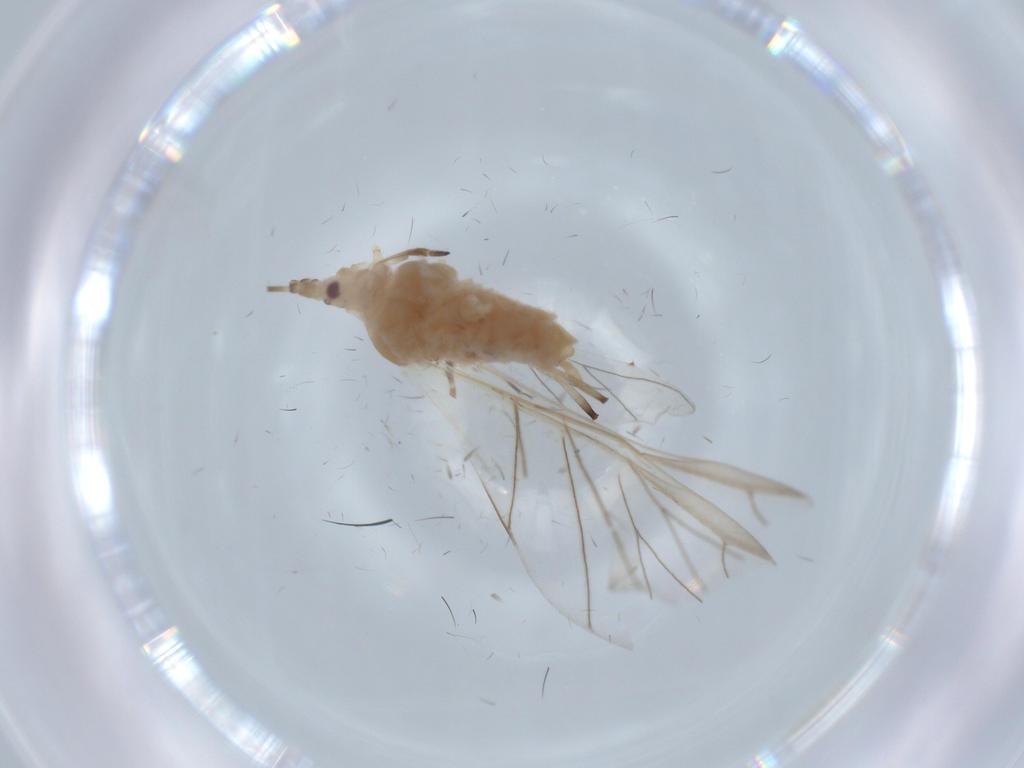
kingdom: Animalia
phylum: Arthropoda
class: Insecta
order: Hemiptera
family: Aphididae
